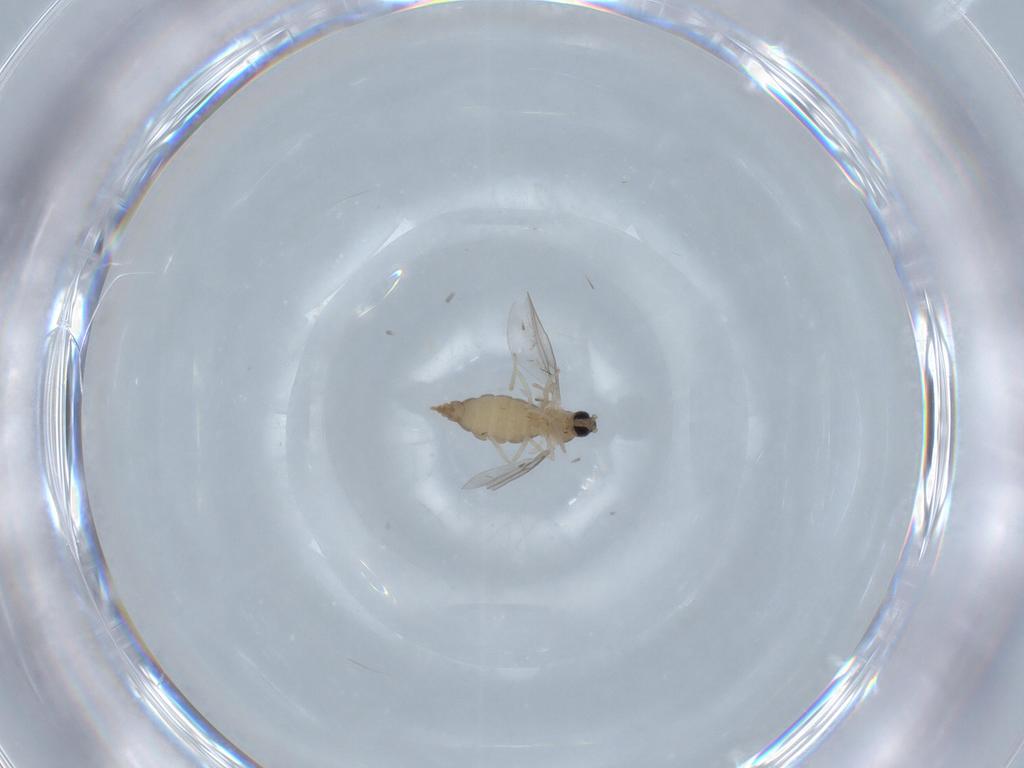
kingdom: Animalia
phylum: Arthropoda
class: Insecta
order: Diptera
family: Cecidomyiidae
